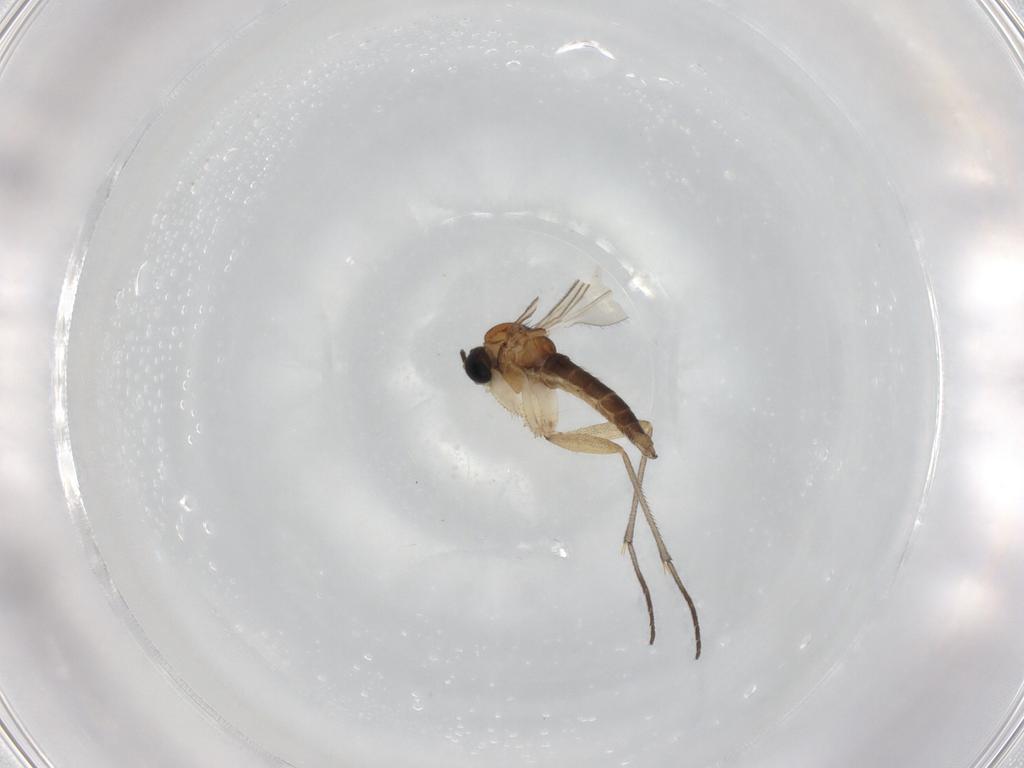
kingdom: Animalia
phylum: Arthropoda
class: Insecta
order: Diptera
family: Sciaridae
